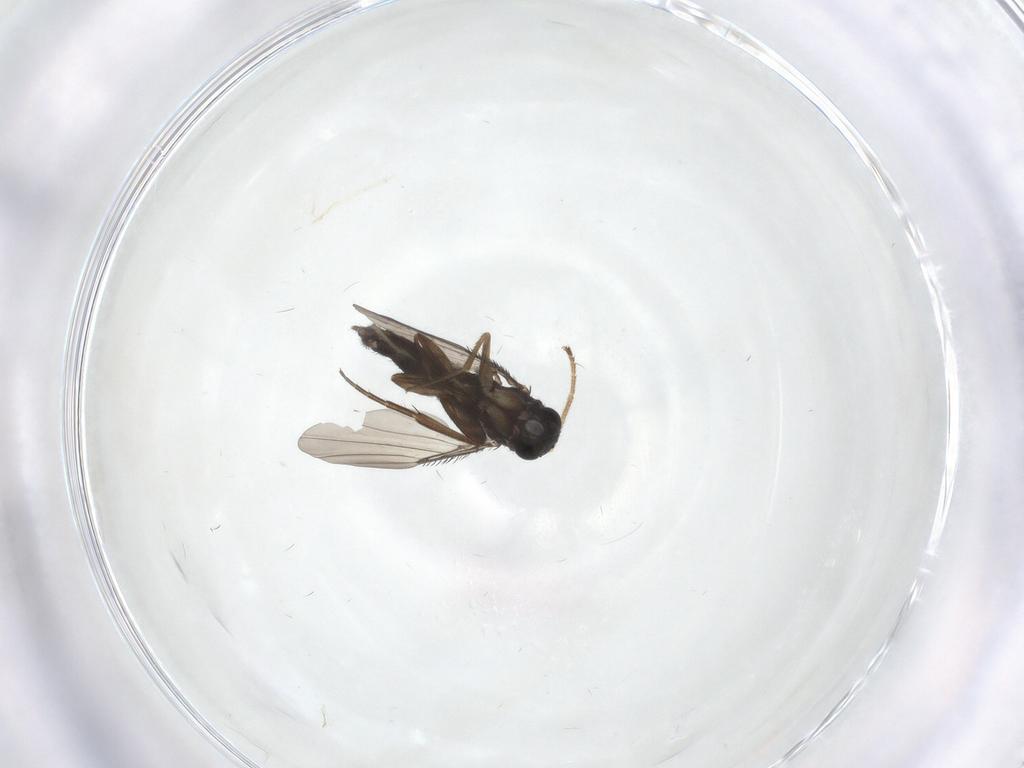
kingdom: Animalia
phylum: Arthropoda
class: Insecta
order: Diptera
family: Empididae
